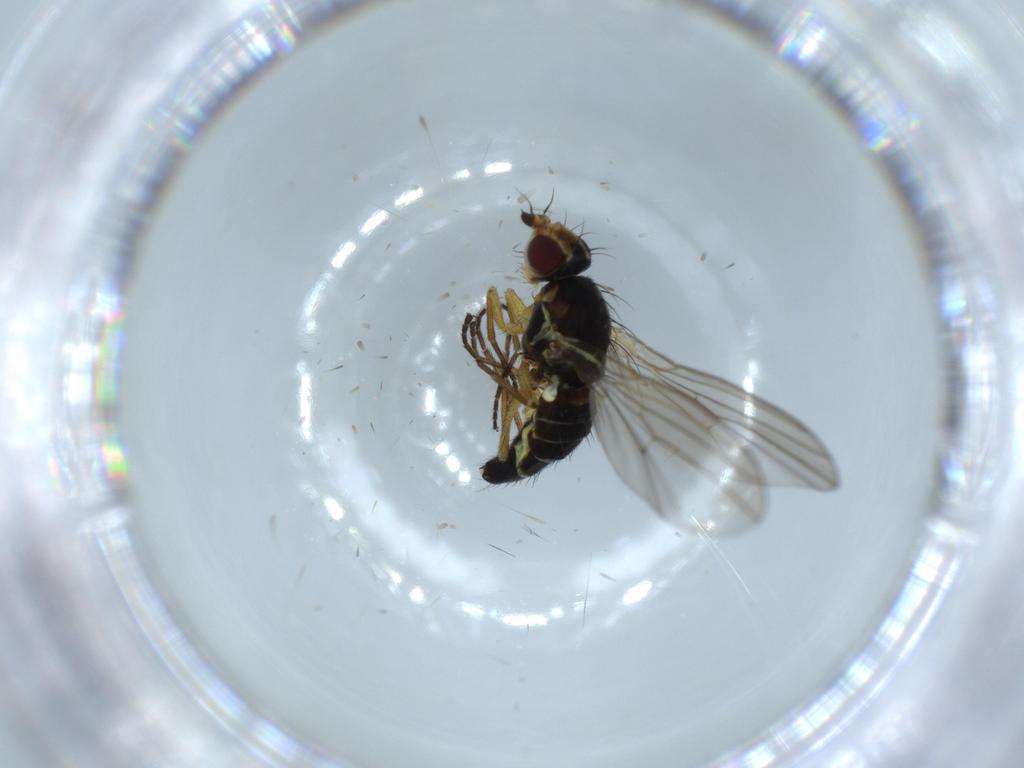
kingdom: Animalia
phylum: Arthropoda
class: Insecta
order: Diptera
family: Agromyzidae
